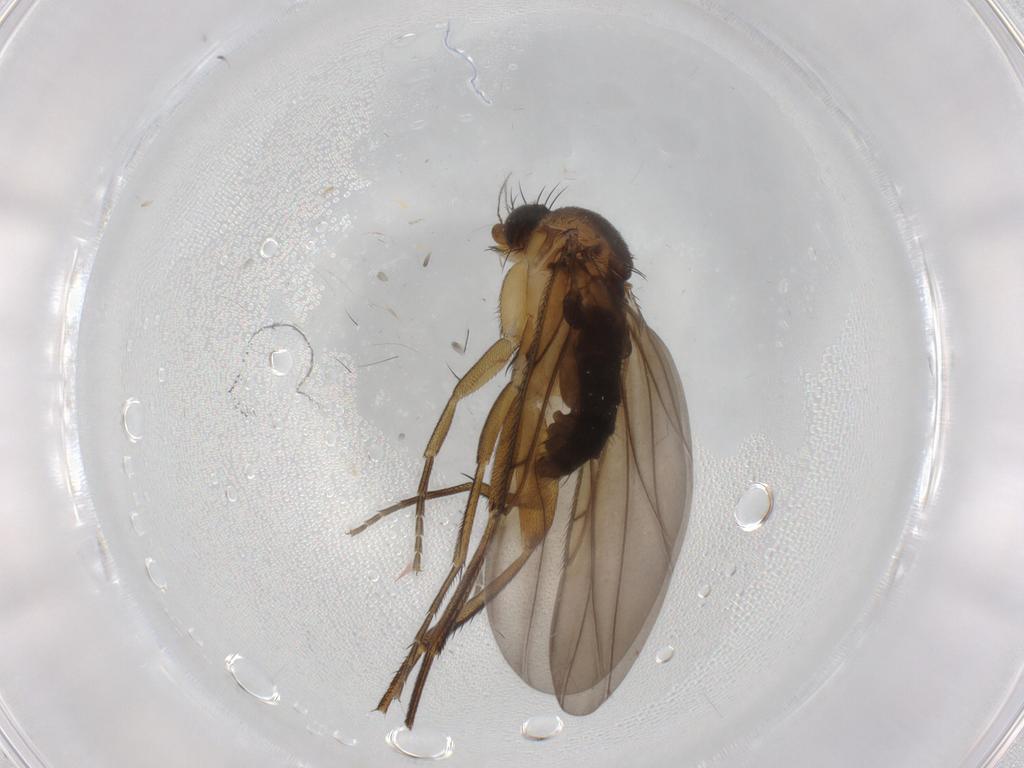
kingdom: Animalia
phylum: Arthropoda
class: Insecta
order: Diptera
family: Phoridae
